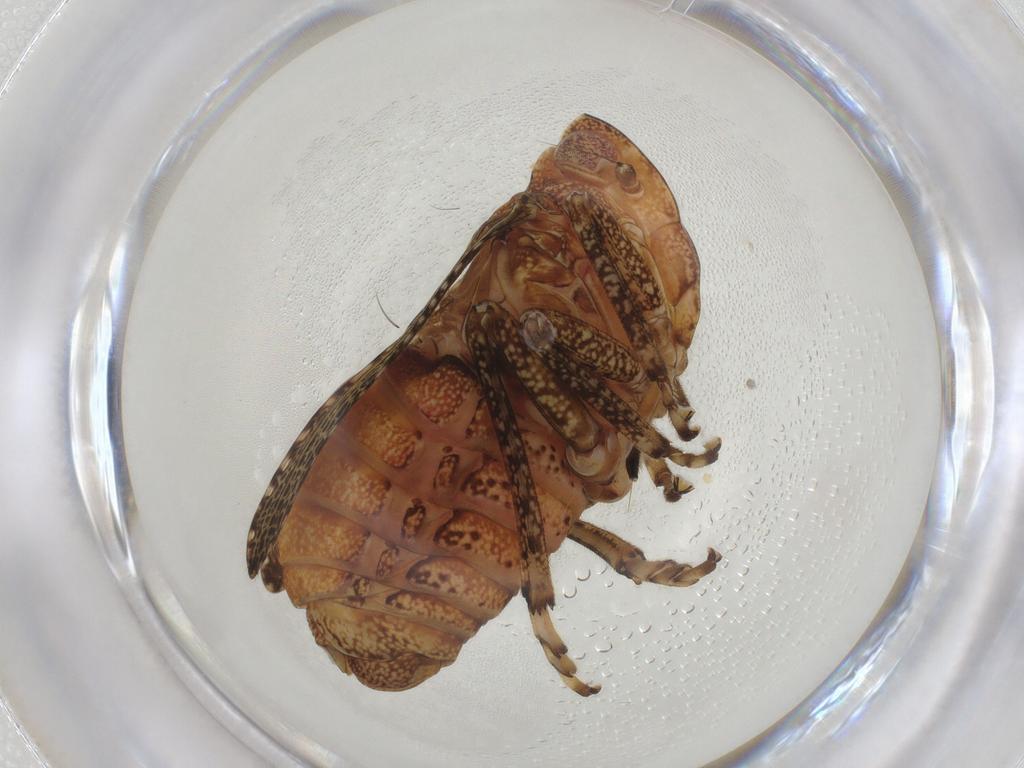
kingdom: Animalia
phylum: Arthropoda
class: Insecta
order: Hemiptera
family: Tropiduchidae
